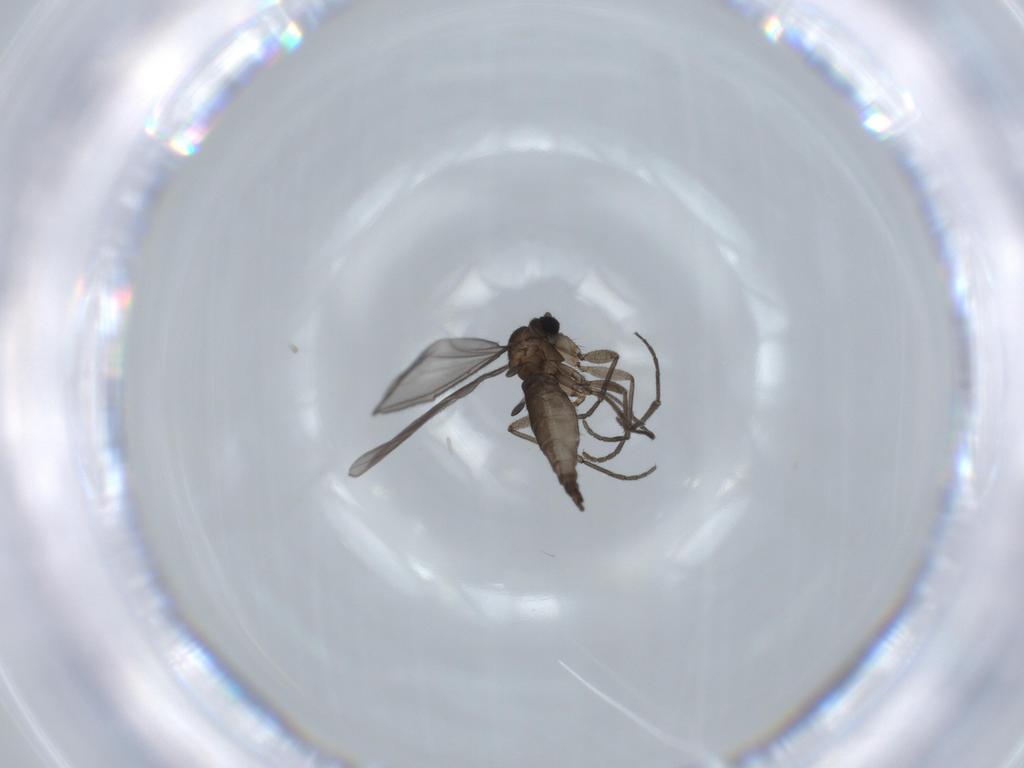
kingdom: Animalia
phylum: Arthropoda
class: Insecta
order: Diptera
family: Sciaridae
